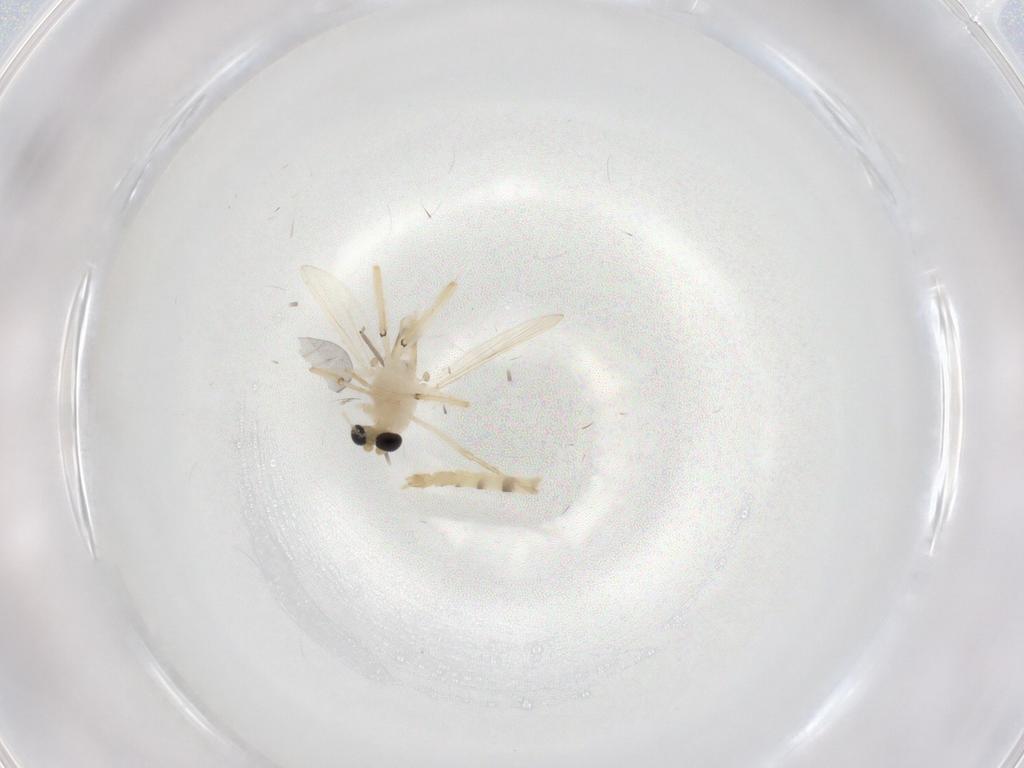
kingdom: Animalia
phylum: Arthropoda
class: Insecta
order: Diptera
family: Chironomidae
